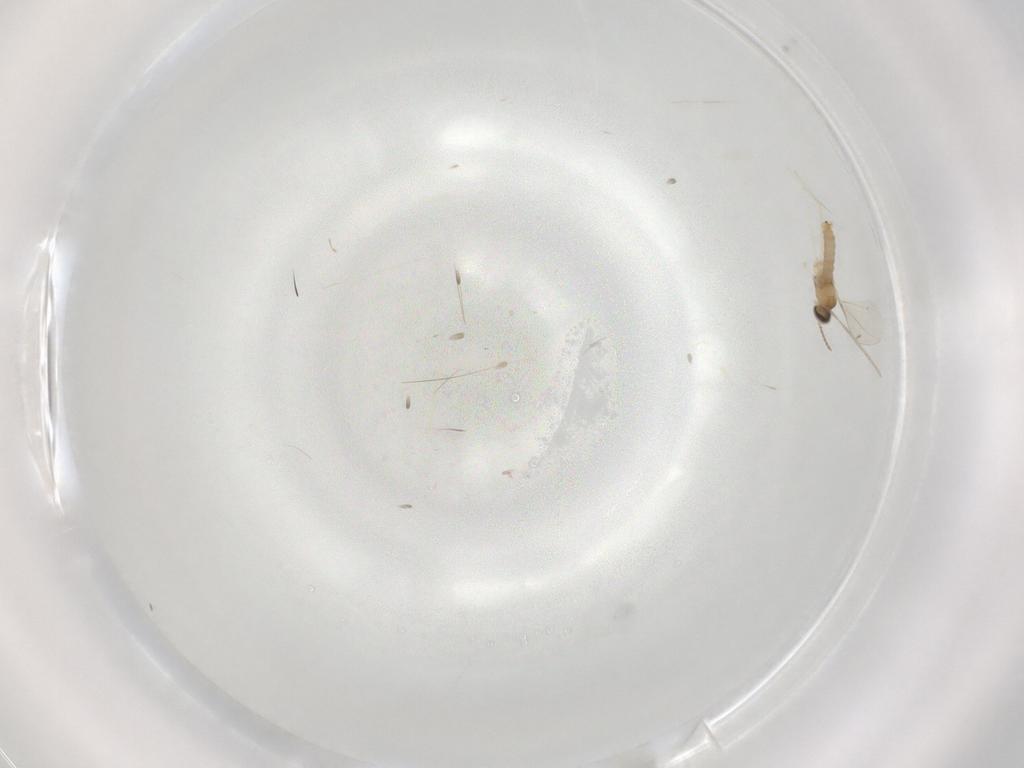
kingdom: Animalia
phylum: Arthropoda
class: Insecta
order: Diptera
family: Cecidomyiidae
